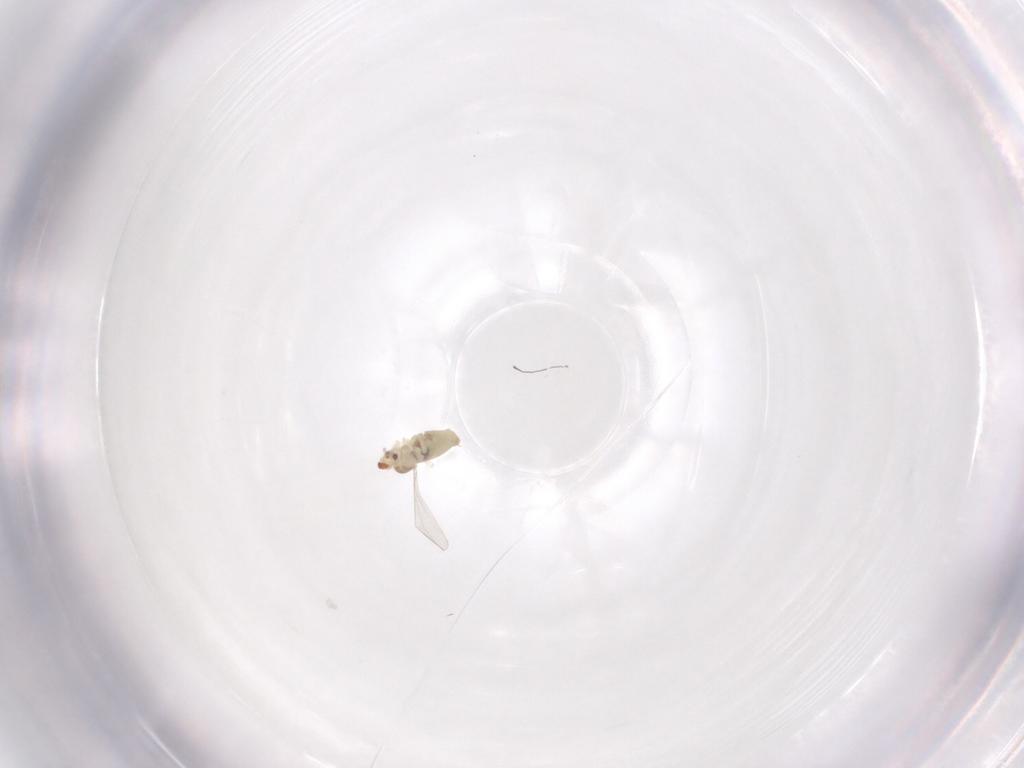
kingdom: Animalia
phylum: Arthropoda
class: Insecta
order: Diptera
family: Cecidomyiidae
